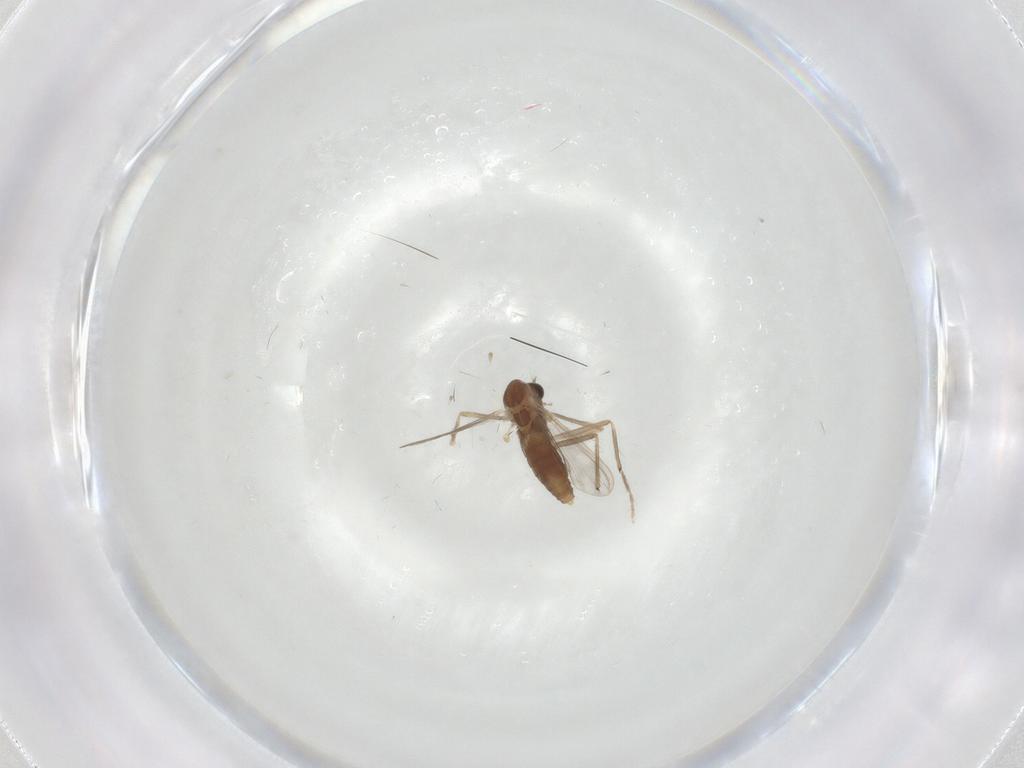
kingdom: Animalia
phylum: Arthropoda
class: Insecta
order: Diptera
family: Chironomidae
